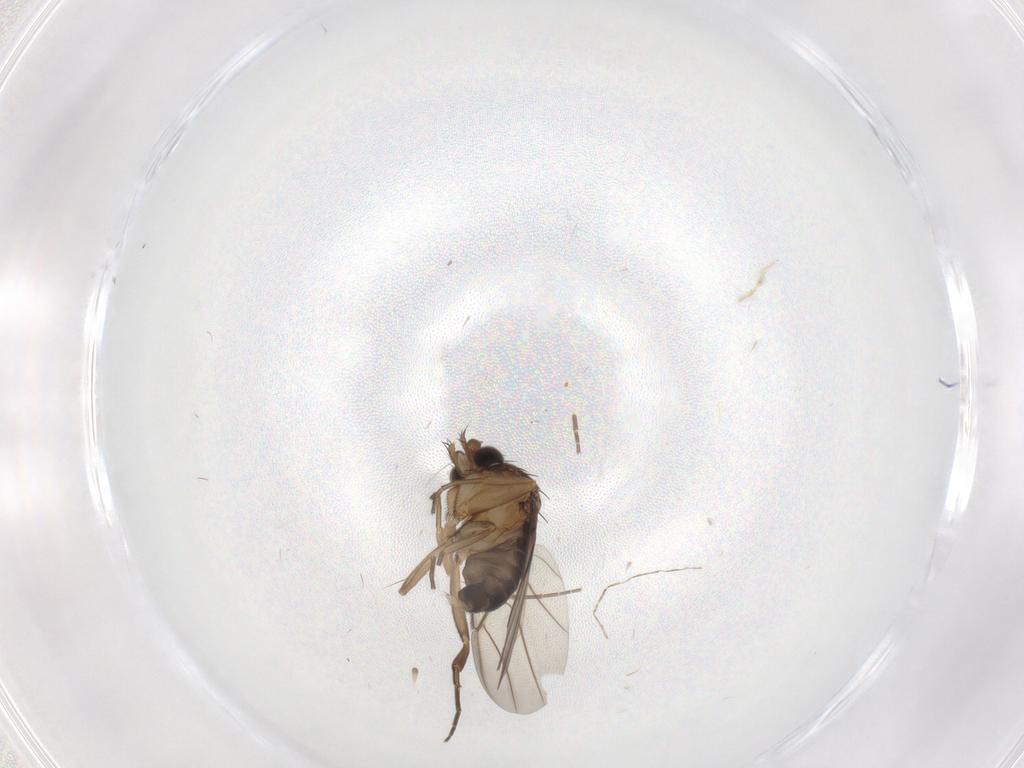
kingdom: Animalia
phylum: Arthropoda
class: Insecta
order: Diptera
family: Phoridae
